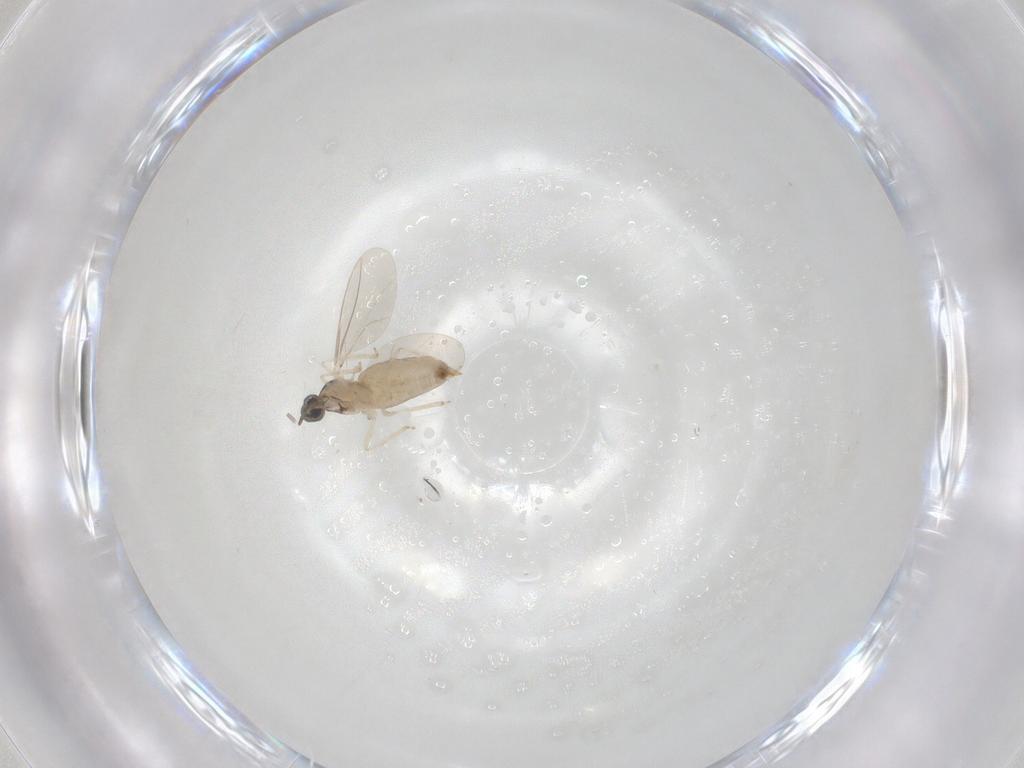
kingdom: Animalia
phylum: Arthropoda
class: Insecta
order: Diptera
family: Cecidomyiidae
